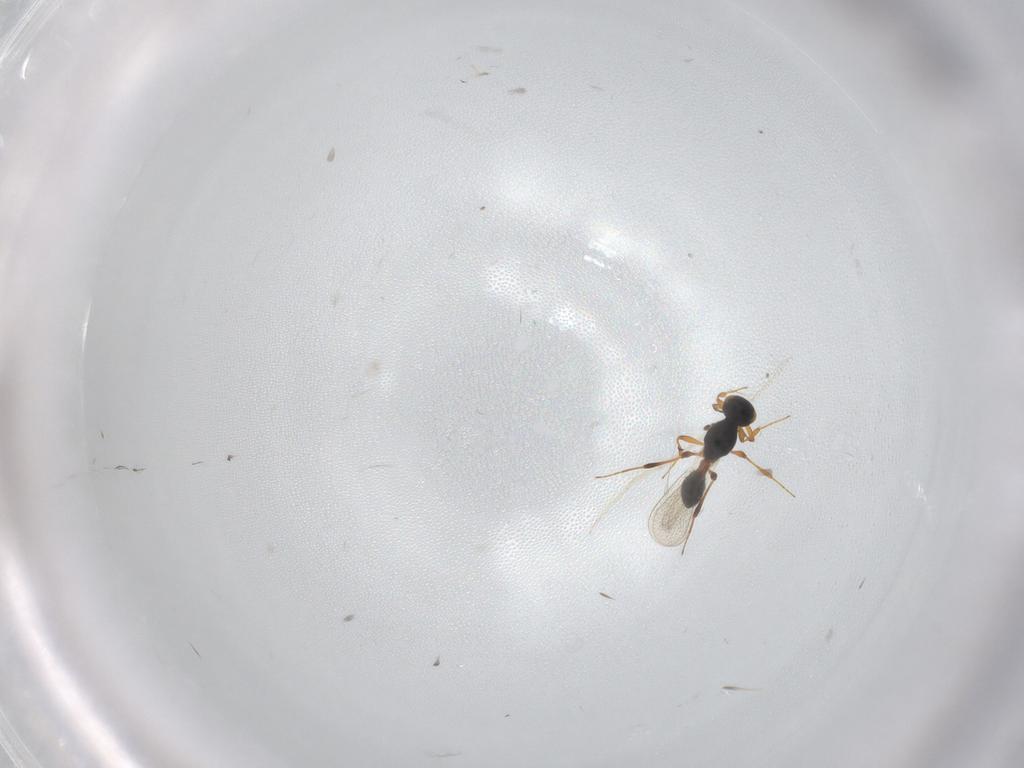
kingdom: Animalia
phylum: Arthropoda
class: Insecta
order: Hymenoptera
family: Platygastridae
